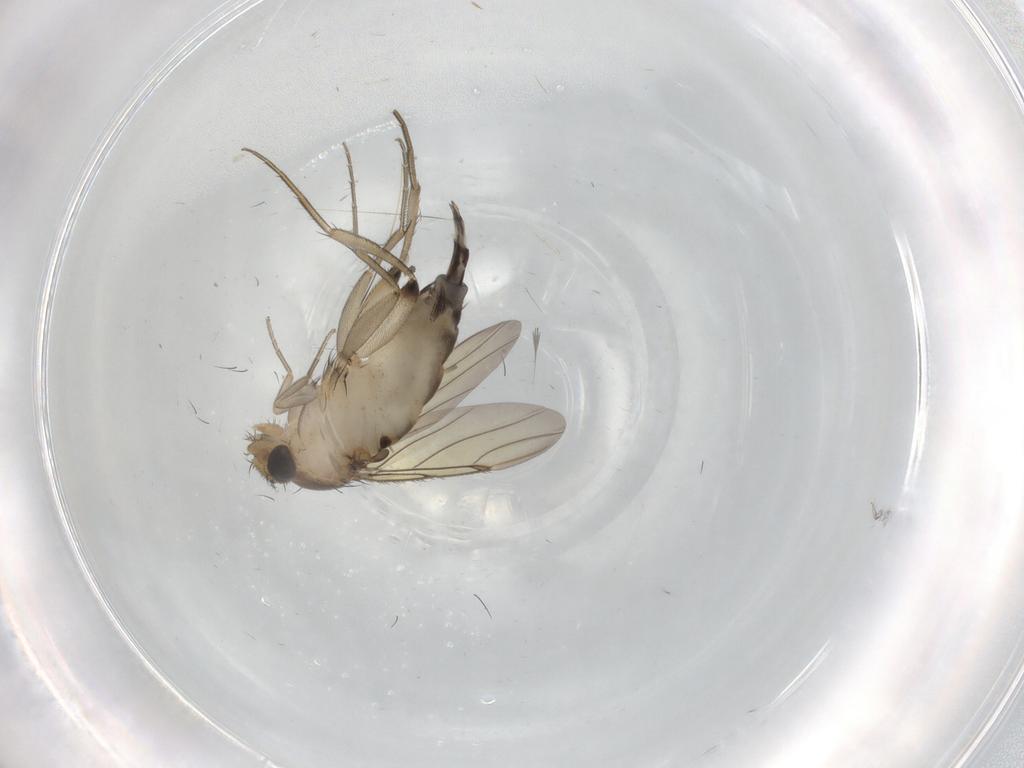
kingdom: Animalia
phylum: Arthropoda
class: Insecta
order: Diptera
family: Phoridae
